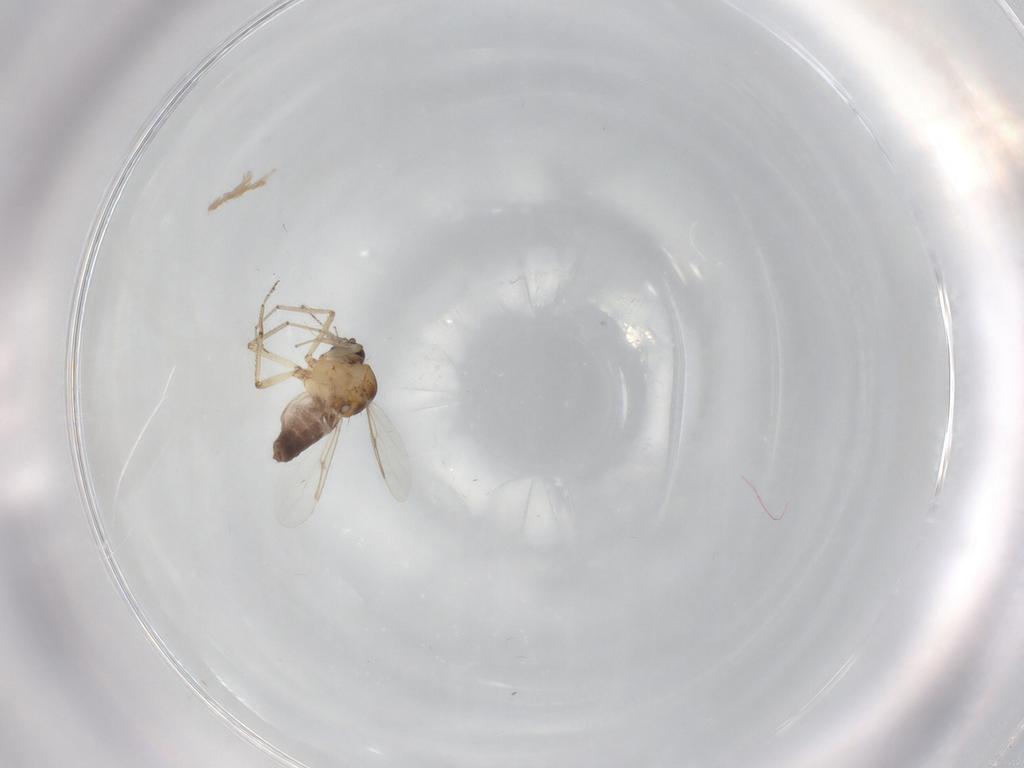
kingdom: Animalia
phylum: Arthropoda
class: Insecta
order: Diptera
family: Ceratopogonidae
